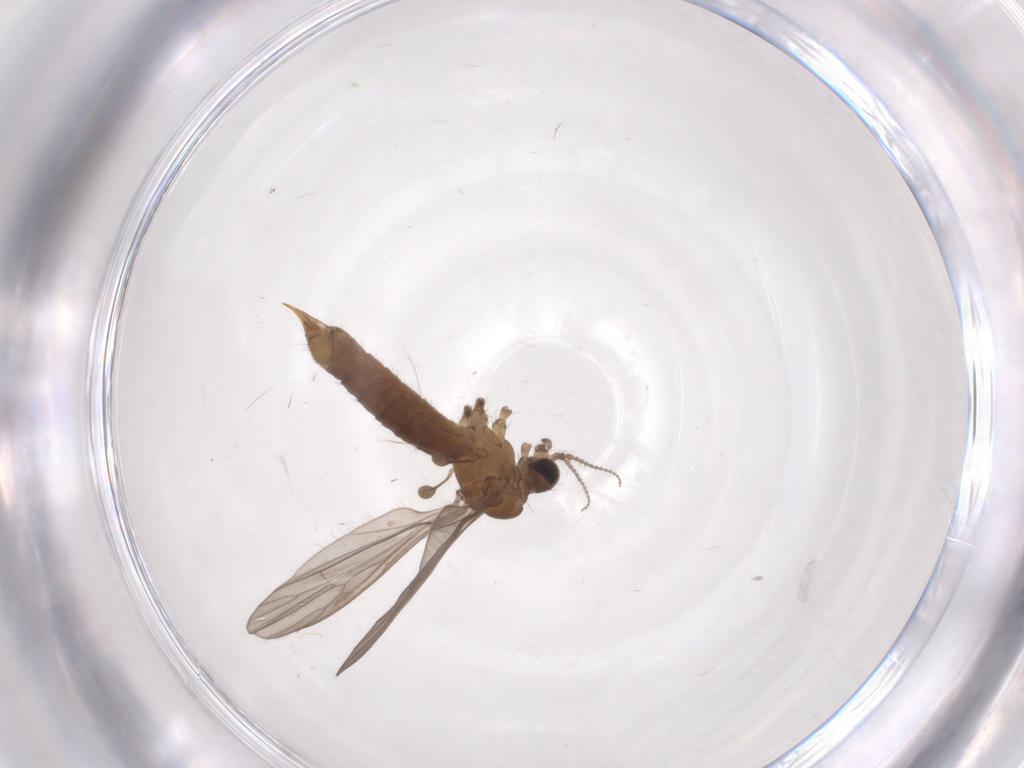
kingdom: Animalia
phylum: Arthropoda
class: Insecta
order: Diptera
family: Limoniidae
